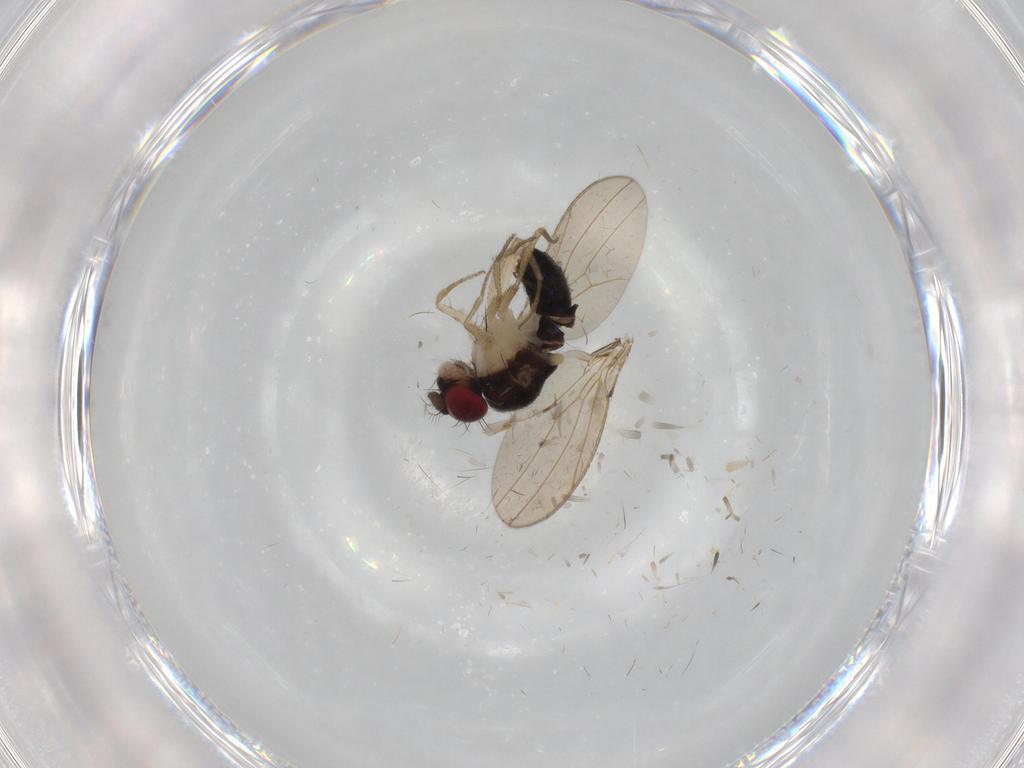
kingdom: Animalia
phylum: Arthropoda
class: Insecta
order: Diptera
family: Drosophilidae
